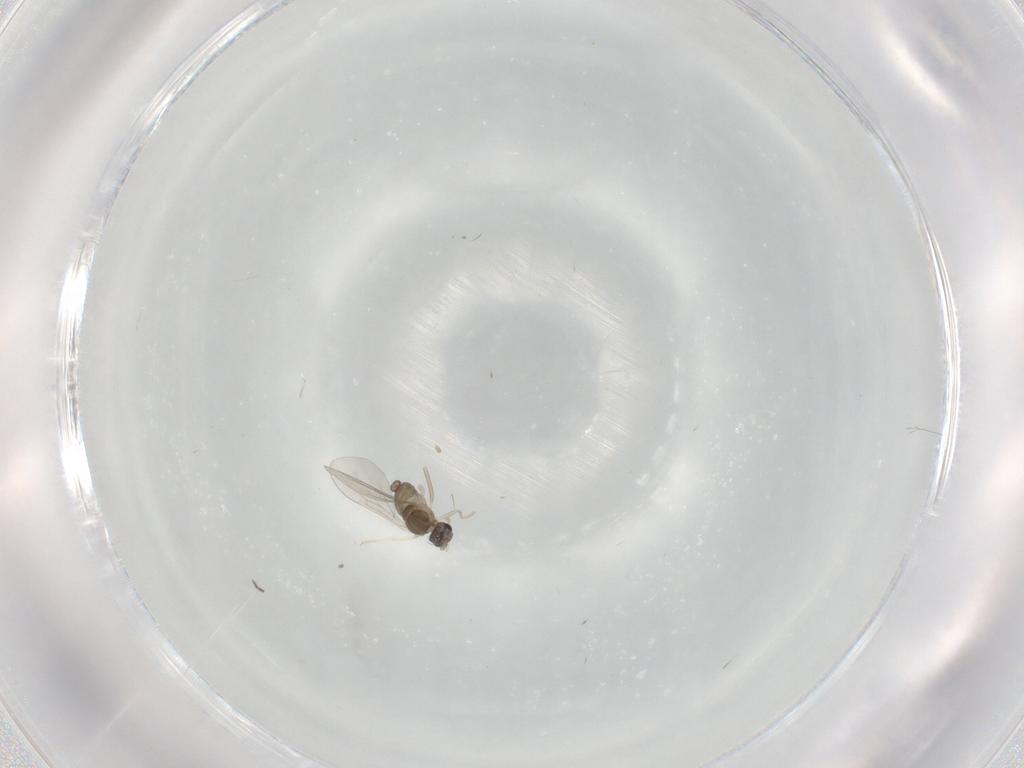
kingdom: Animalia
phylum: Arthropoda
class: Insecta
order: Diptera
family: Cecidomyiidae
